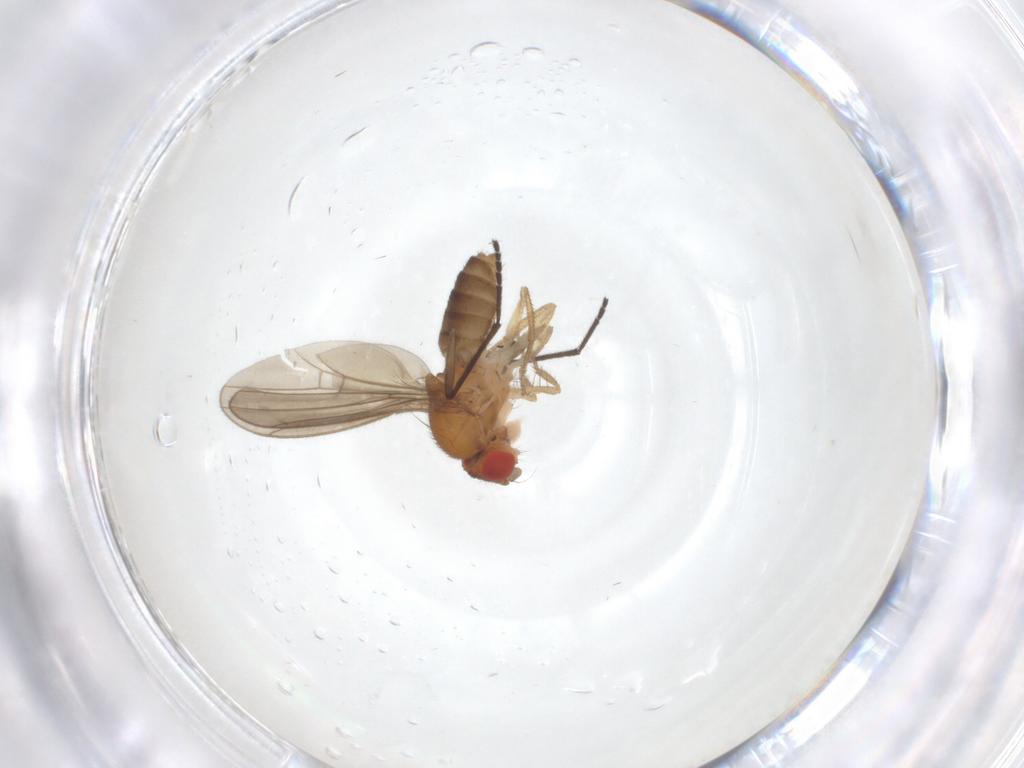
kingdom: Animalia
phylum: Arthropoda
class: Insecta
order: Diptera
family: Drosophilidae
